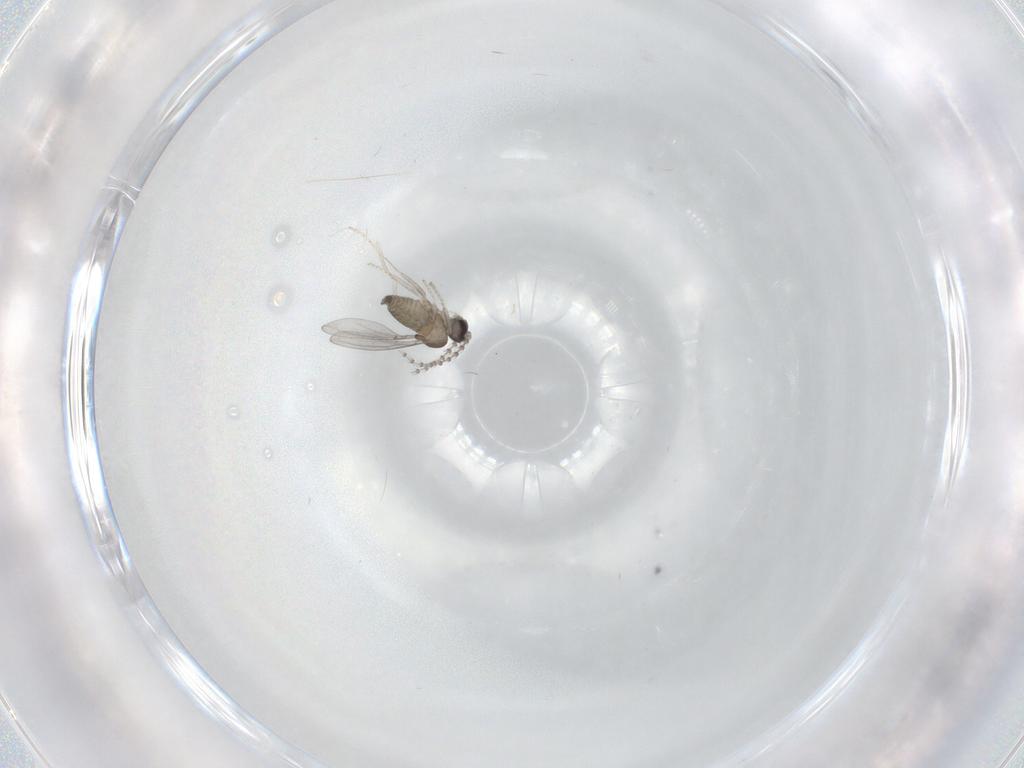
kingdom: Animalia
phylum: Arthropoda
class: Insecta
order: Diptera
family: Cecidomyiidae
